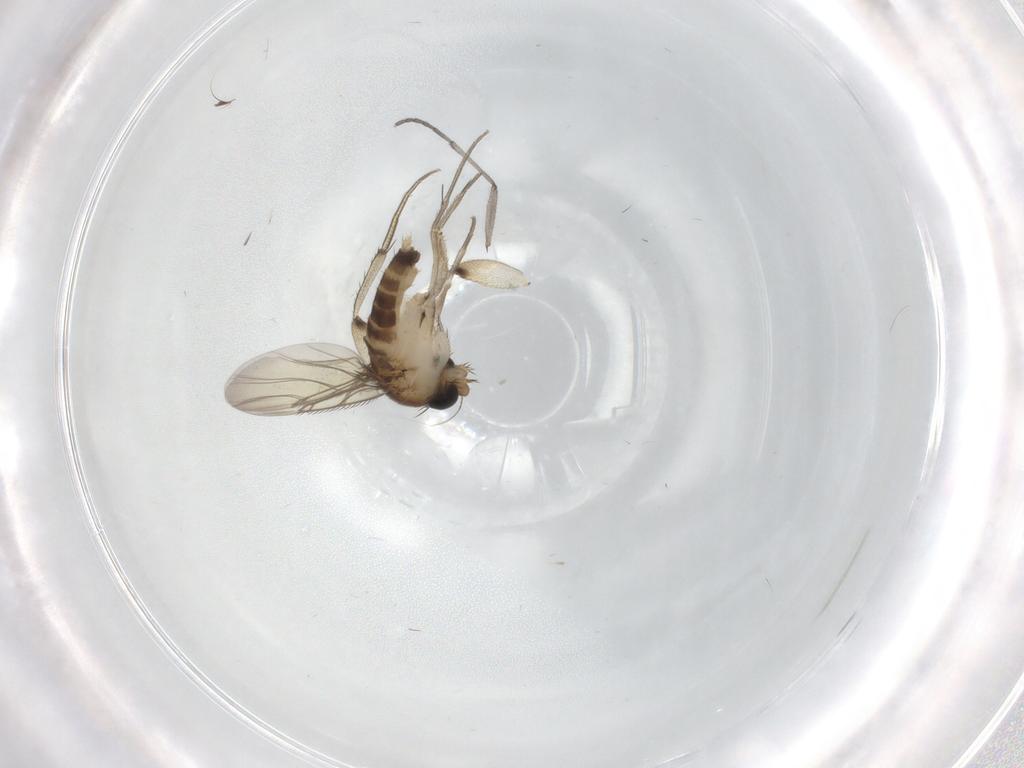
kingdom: Animalia
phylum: Arthropoda
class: Insecta
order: Diptera
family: Phoridae
